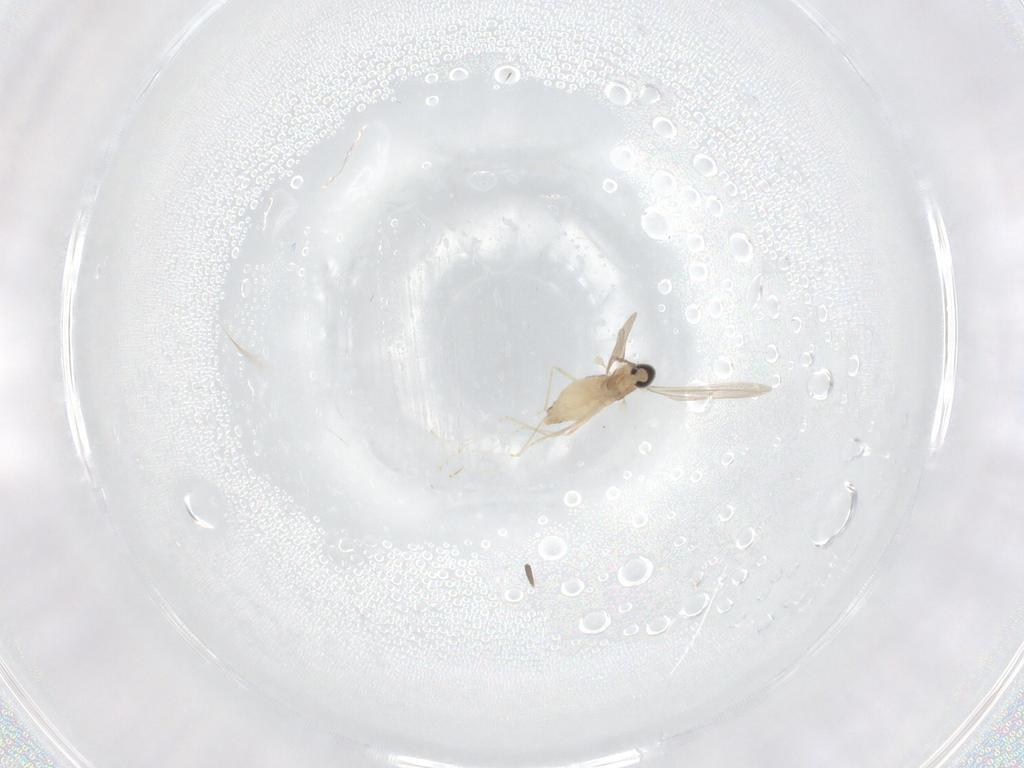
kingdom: Animalia
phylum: Arthropoda
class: Insecta
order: Diptera
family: Cecidomyiidae
